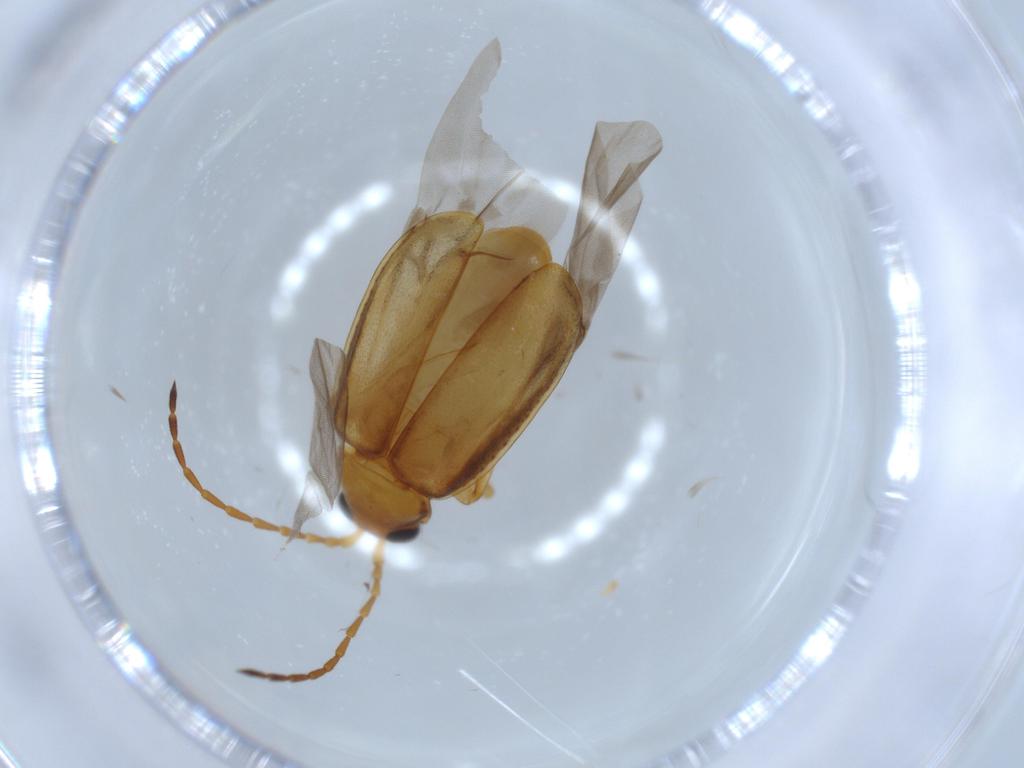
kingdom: Animalia
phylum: Arthropoda
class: Insecta
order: Coleoptera
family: Chrysomelidae
